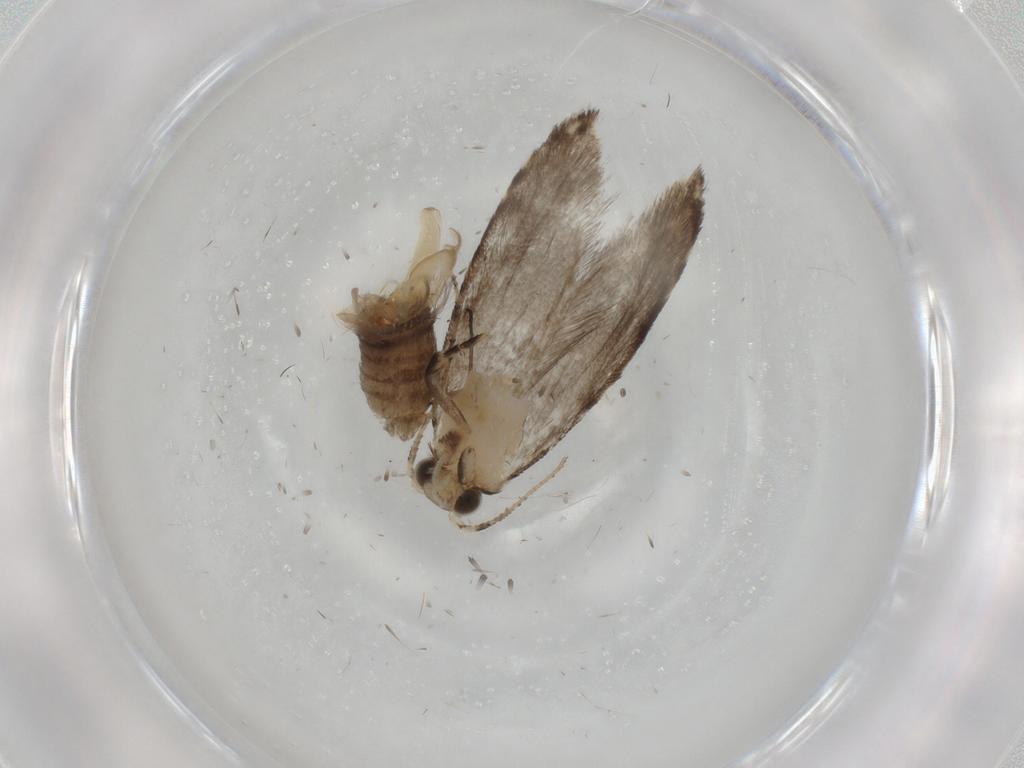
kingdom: Animalia
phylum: Arthropoda
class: Insecta
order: Lepidoptera
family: Tineidae
